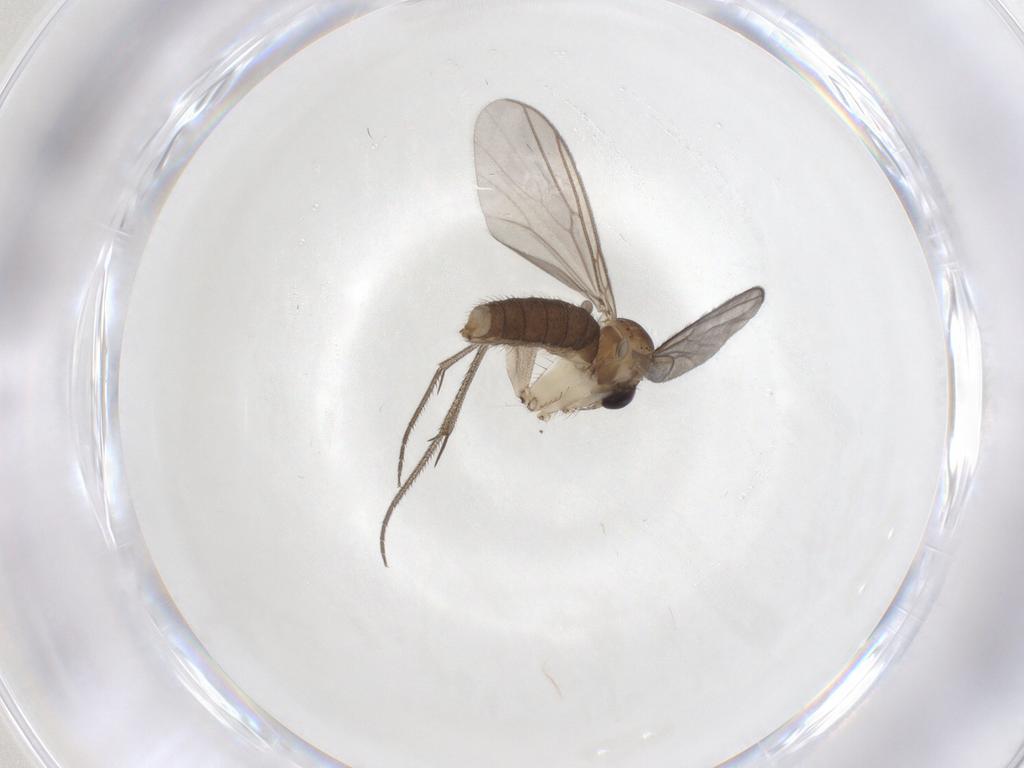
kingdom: Animalia
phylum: Arthropoda
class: Insecta
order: Diptera
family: Mycetophilidae
